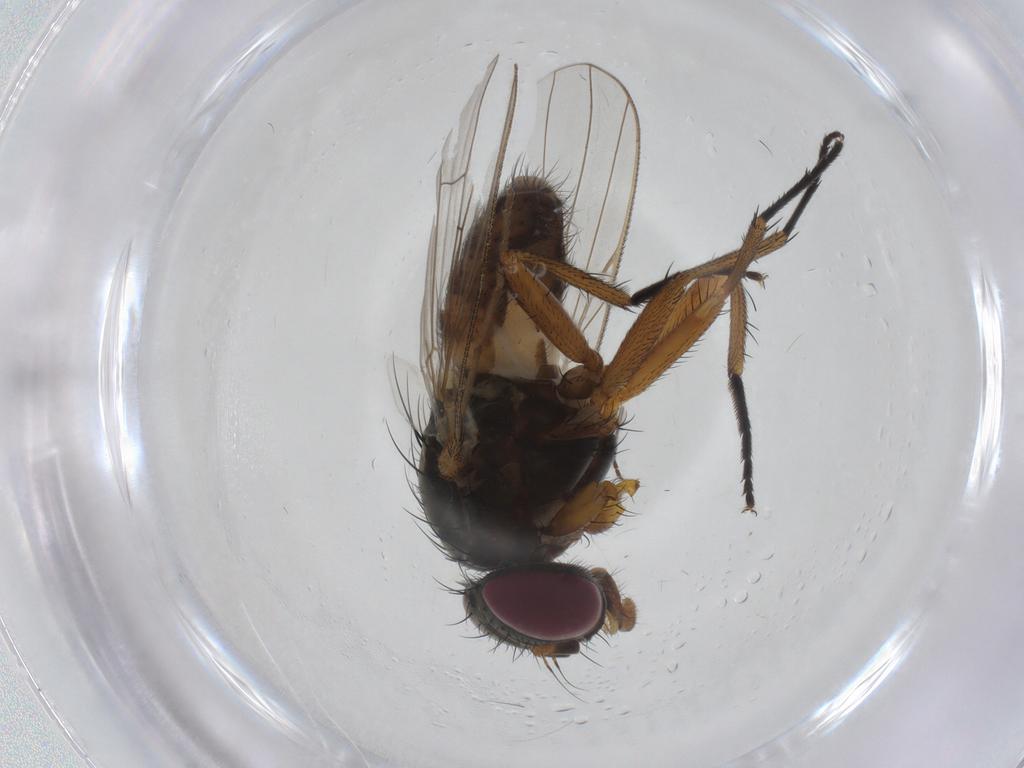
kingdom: Animalia
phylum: Arthropoda
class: Insecta
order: Diptera
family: Fannia
